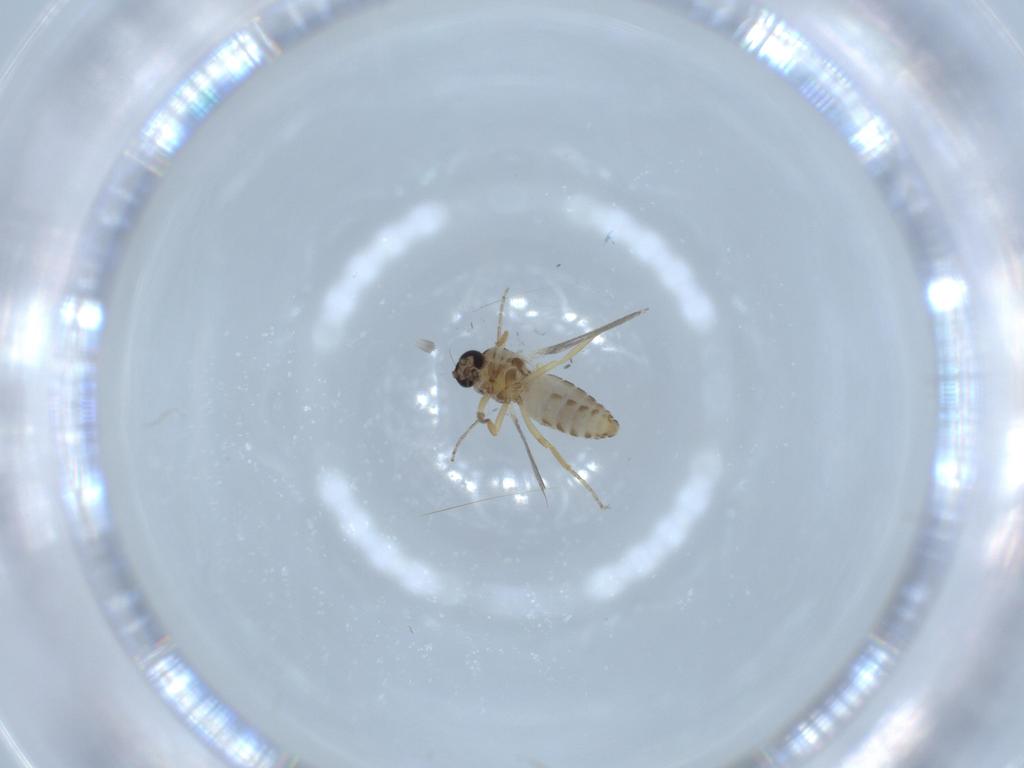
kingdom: Animalia
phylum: Arthropoda
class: Insecta
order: Diptera
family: Ceratopogonidae
